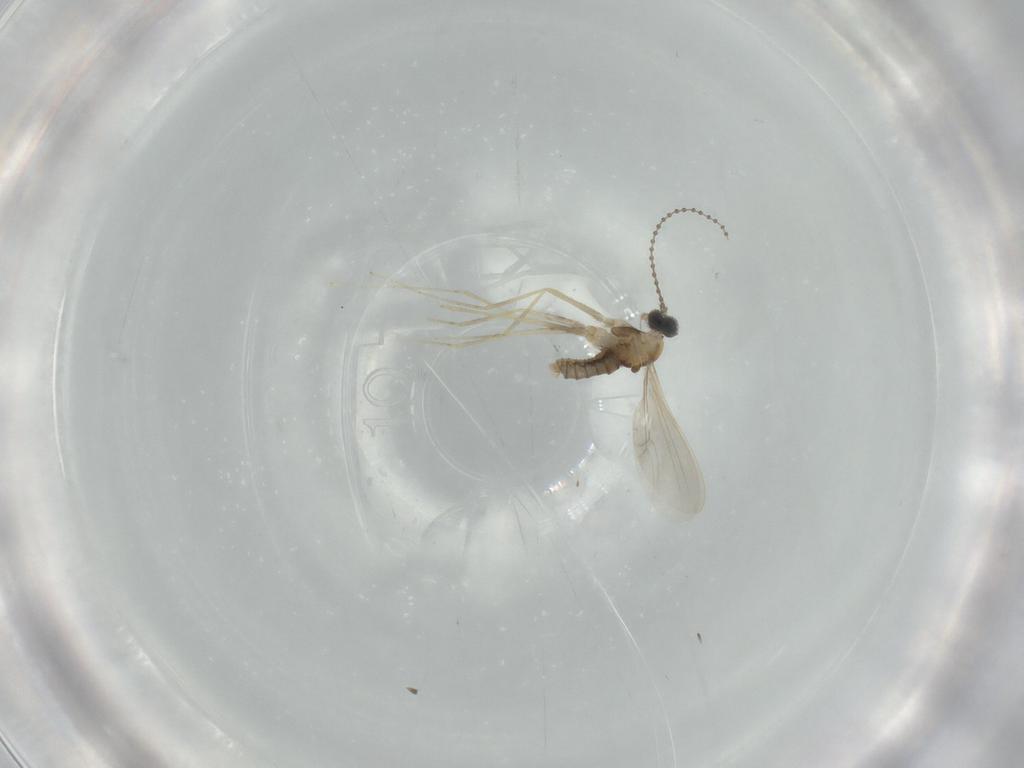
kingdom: Animalia
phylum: Arthropoda
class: Insecta
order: Diptera
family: Cecidomyiidae
